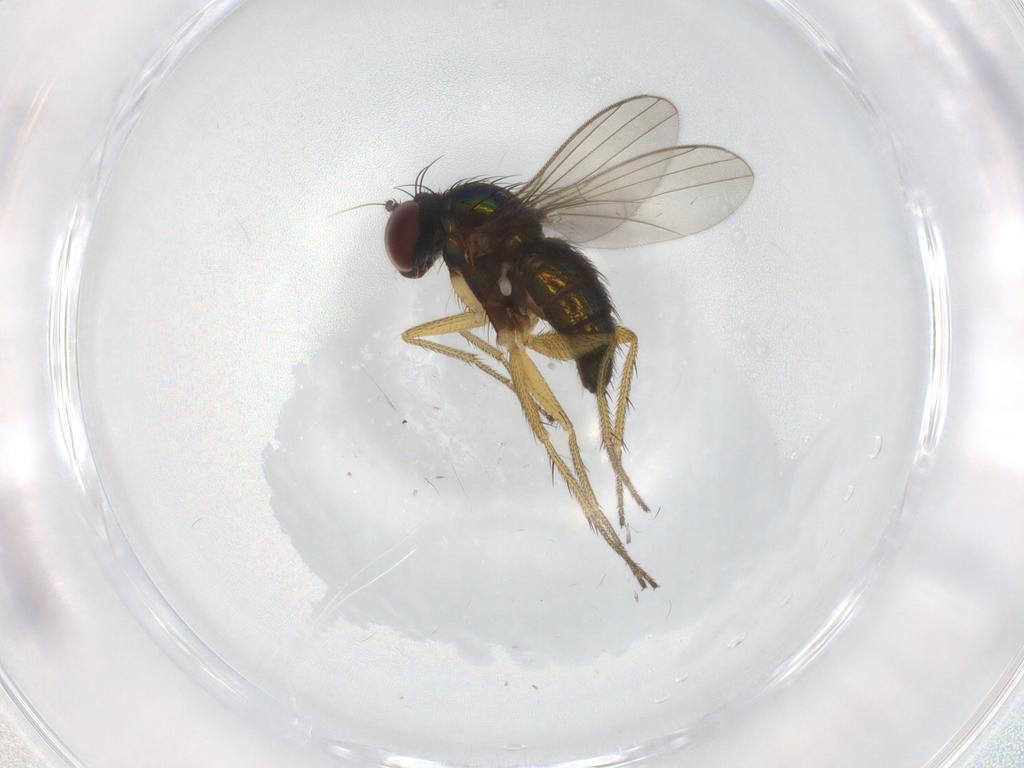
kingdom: Animalia
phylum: Arthropoda
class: Insecta
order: Diptera
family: Dolichopodidae
